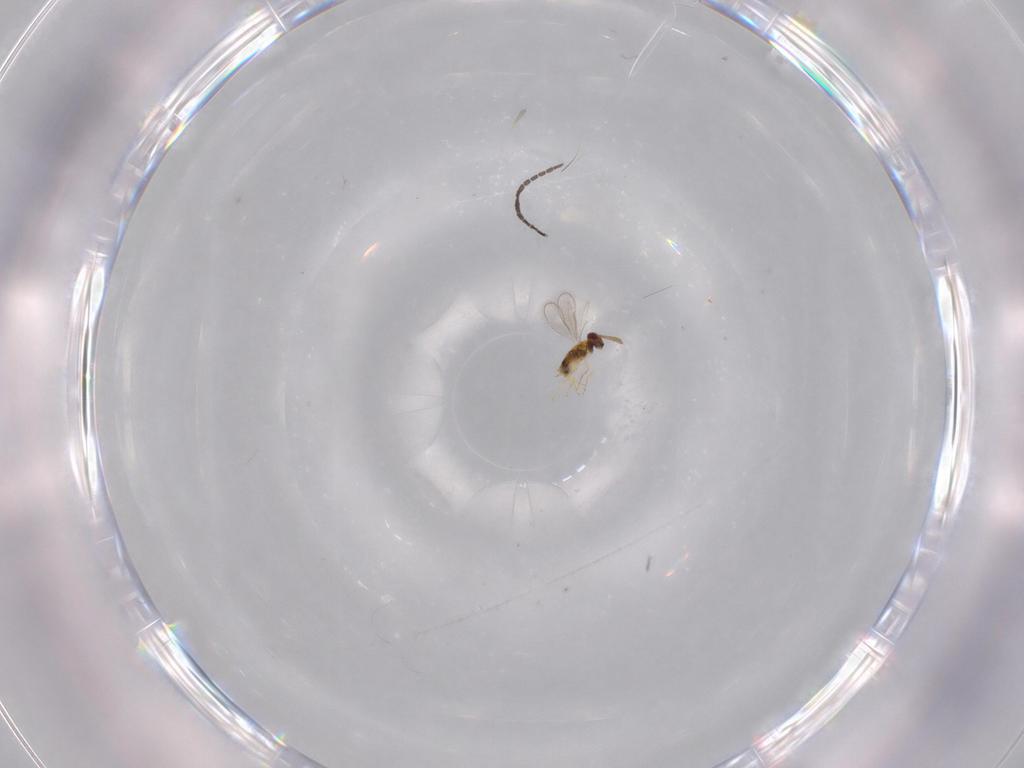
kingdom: Animalia
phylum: Arthropoda
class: Insecta
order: Hymenoptera
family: Aphelinidae
